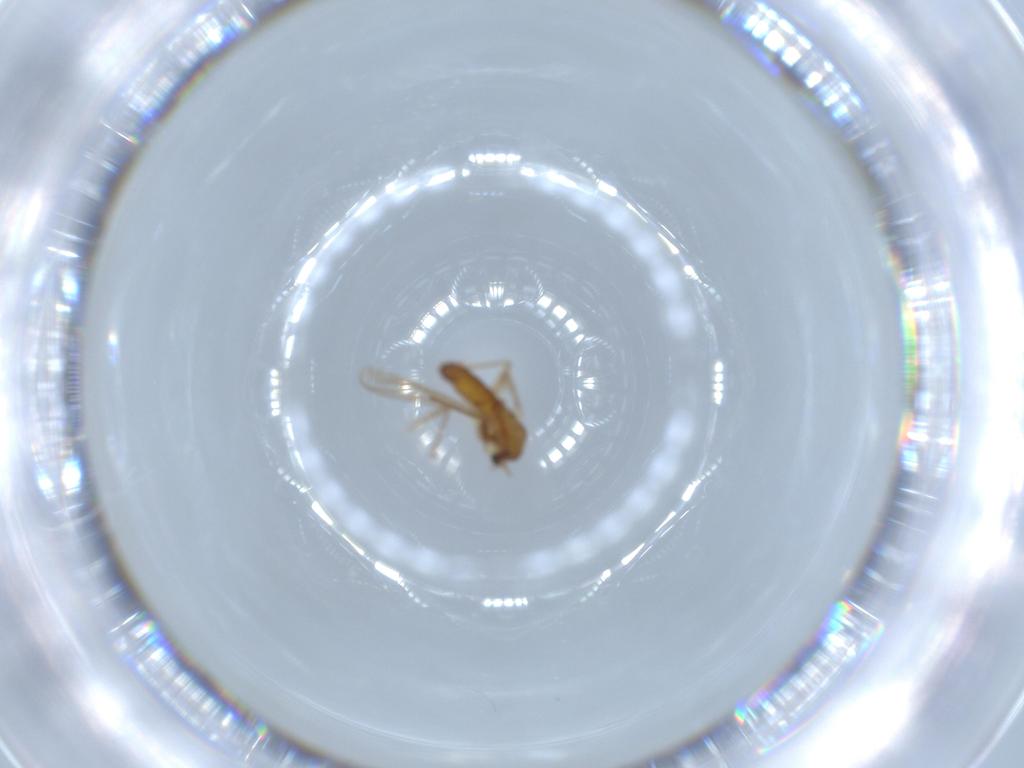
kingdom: Animalia
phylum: Arthropoda
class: Insecta
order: Diptera
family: Chironomidae
